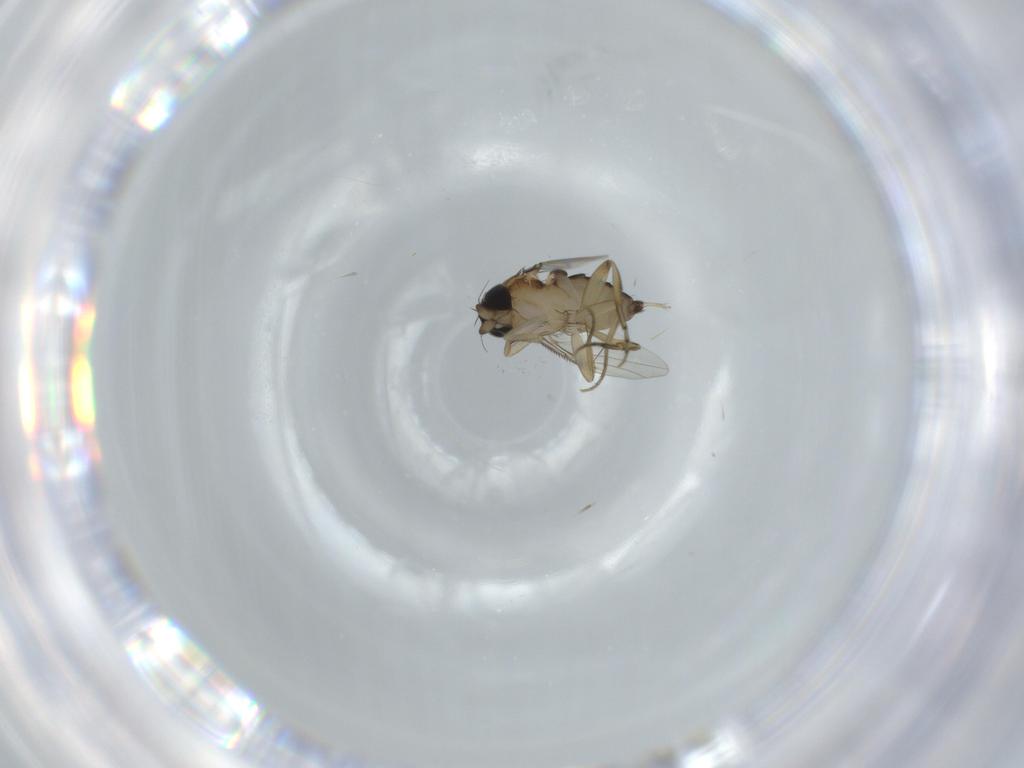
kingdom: Animalia
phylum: Arthropoda
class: Insecta
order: Diptera
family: Phoridae
